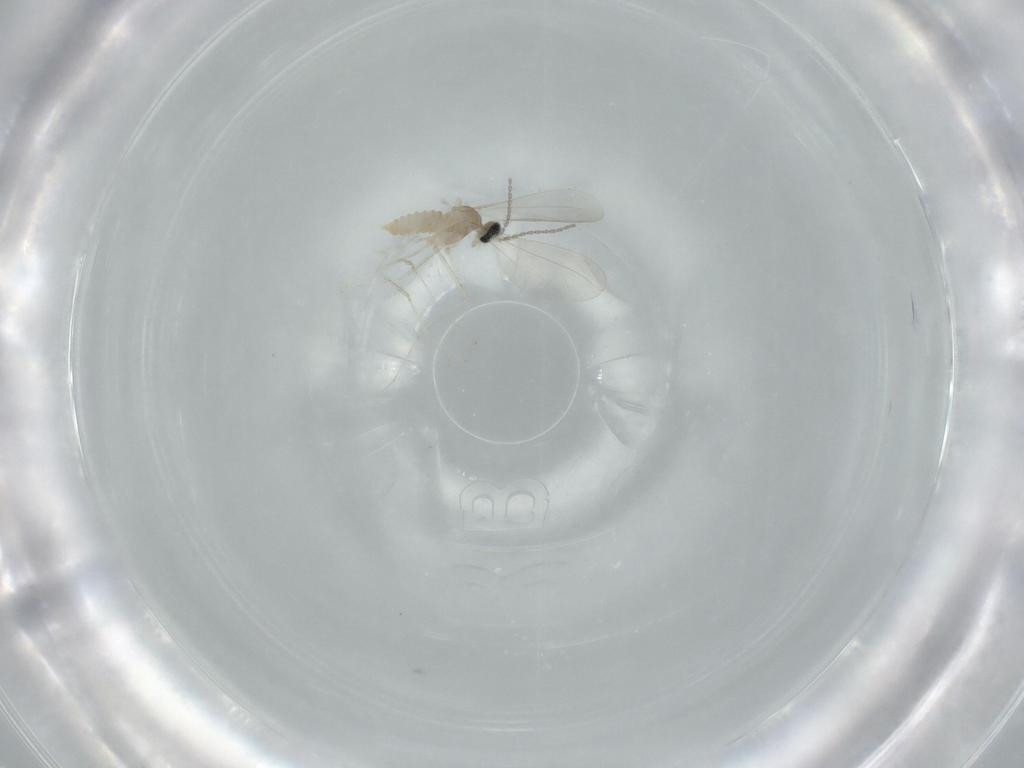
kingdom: Animalia
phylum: Arthropoda
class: Insecta
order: Diptera
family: Cecidomyiidae
